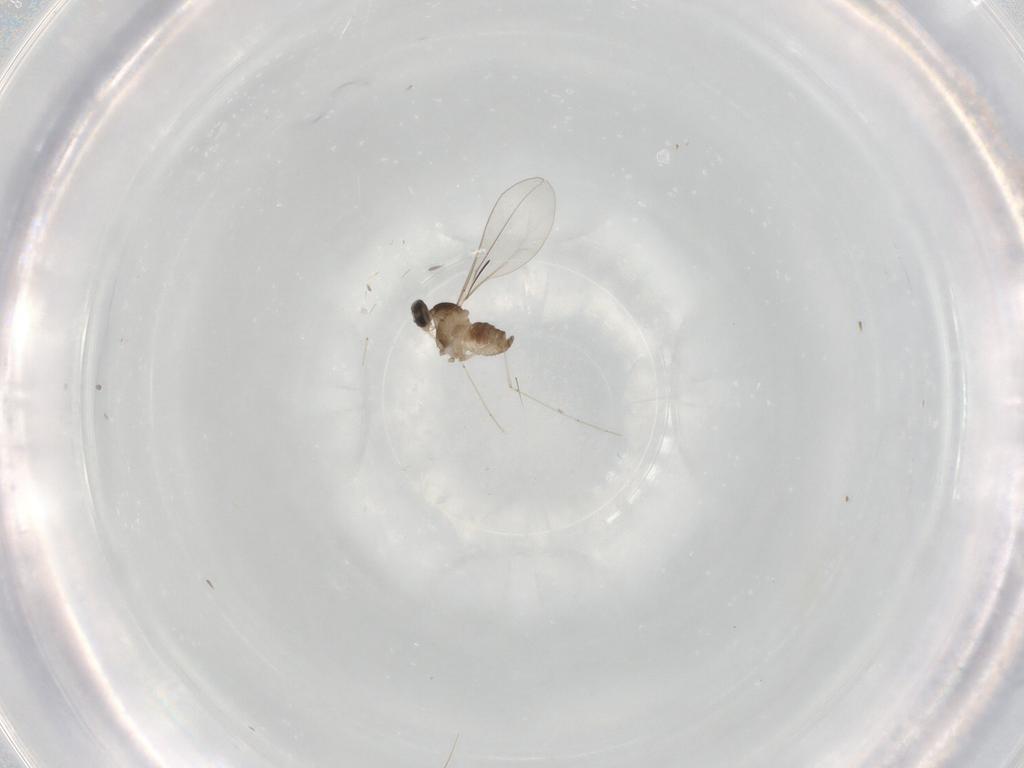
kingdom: Animalia
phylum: Arthropoda
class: Insecta
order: Diptera
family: Cecidomyiidae
